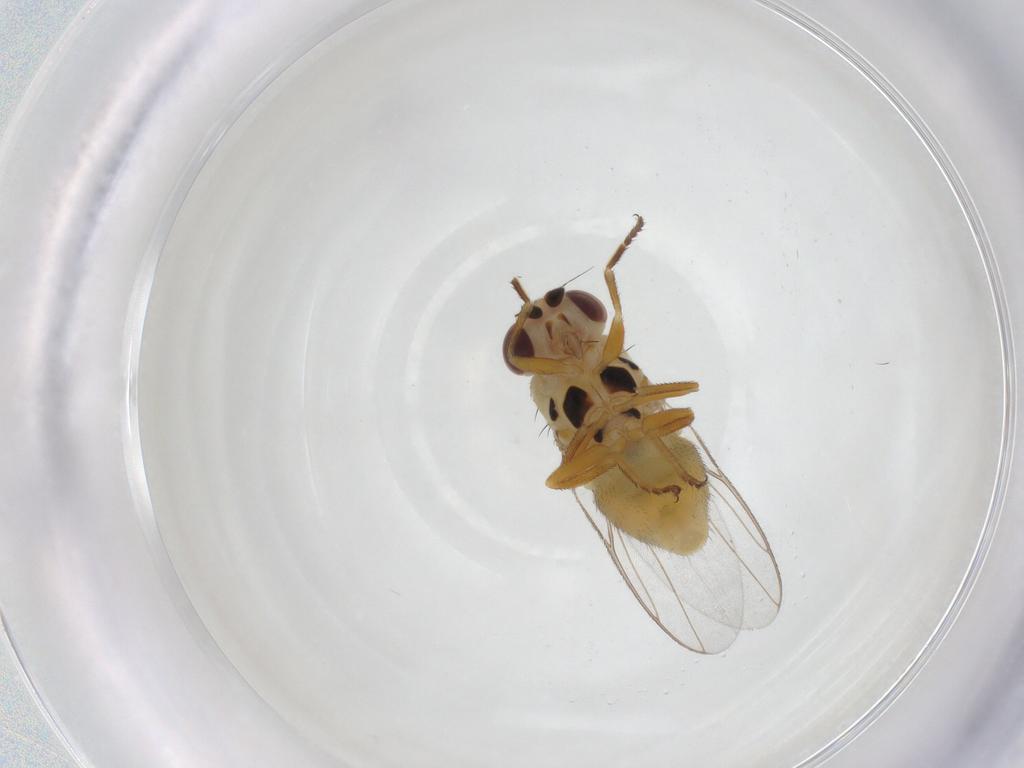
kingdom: Animalia
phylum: Arthropoda
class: Insecta
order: Diptera
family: Chloropidae
